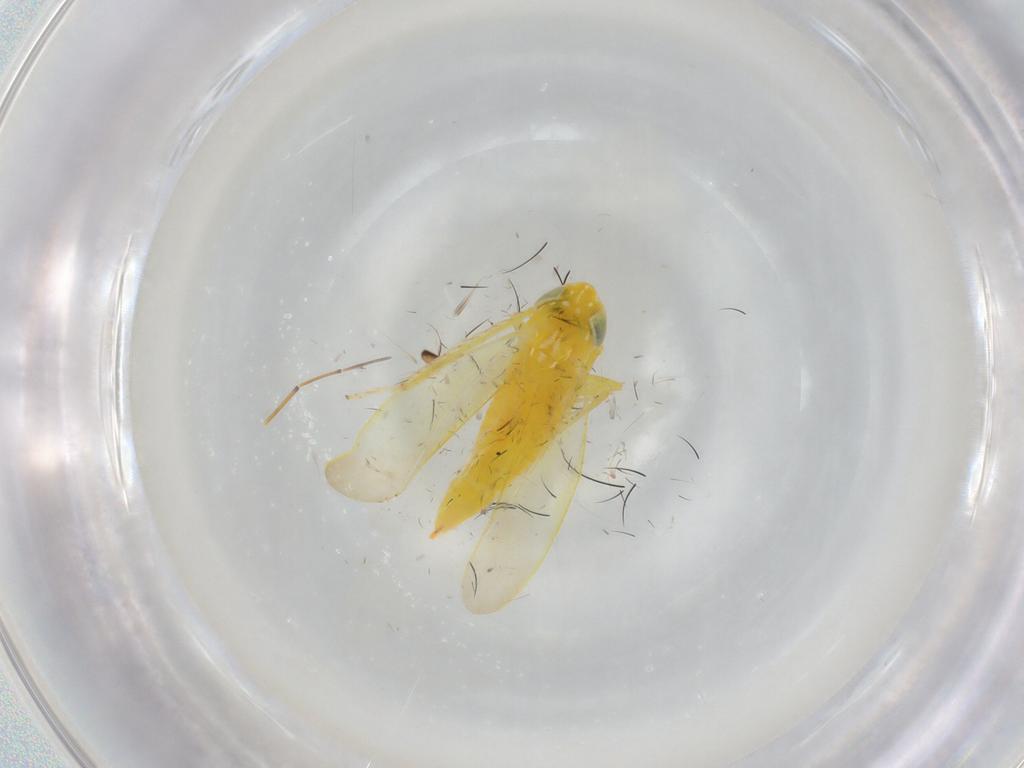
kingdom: Animalia
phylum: Arthropoda
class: Insecta
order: Hemiptera
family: Cicadellidae
